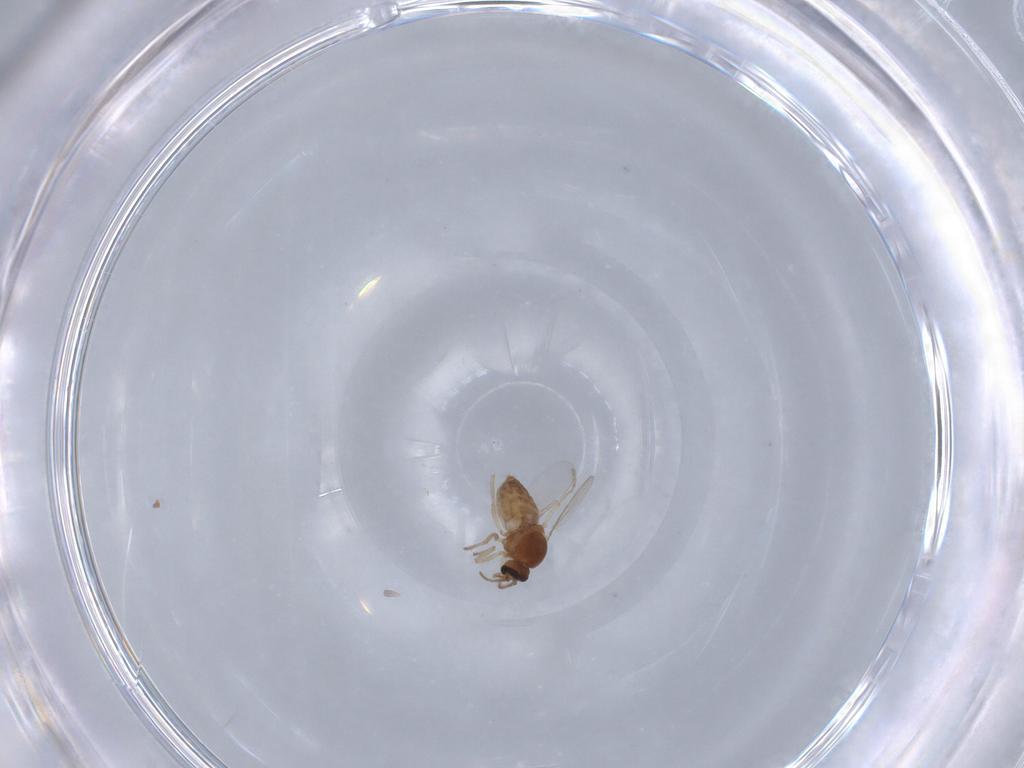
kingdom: Animalia
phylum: Arthropoda
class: Insecta
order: Diptera
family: Ceratopogonidae
